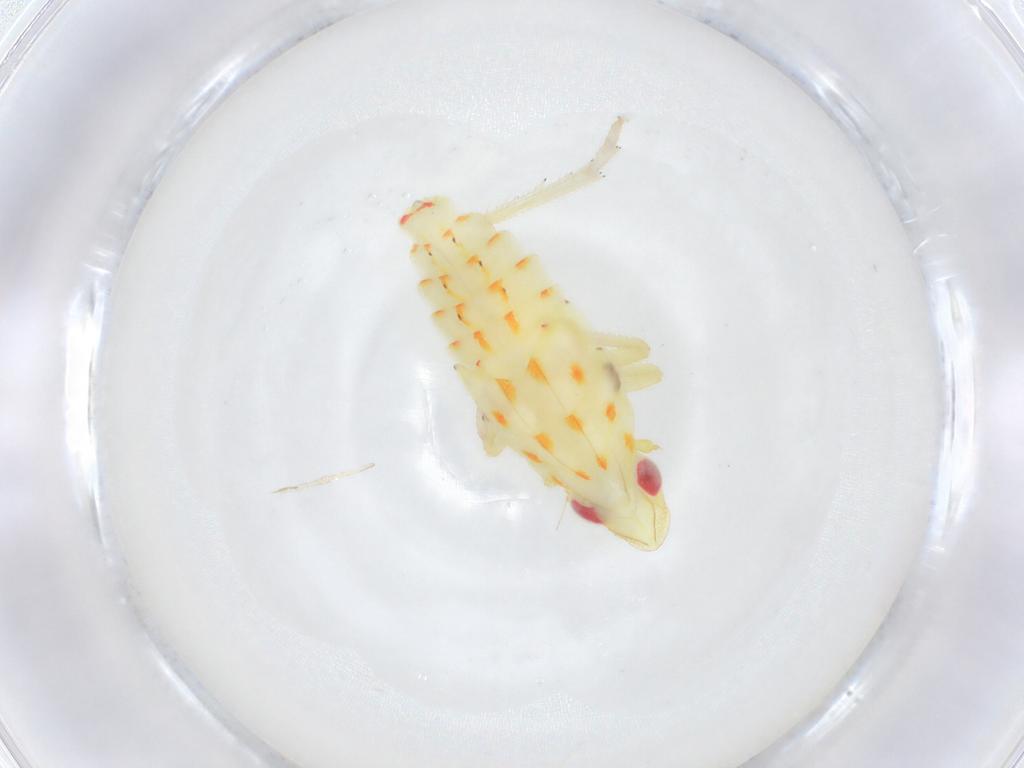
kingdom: Animalia
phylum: Arthropoda
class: Insecta
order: Hemiptera
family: Tropiduchidae
